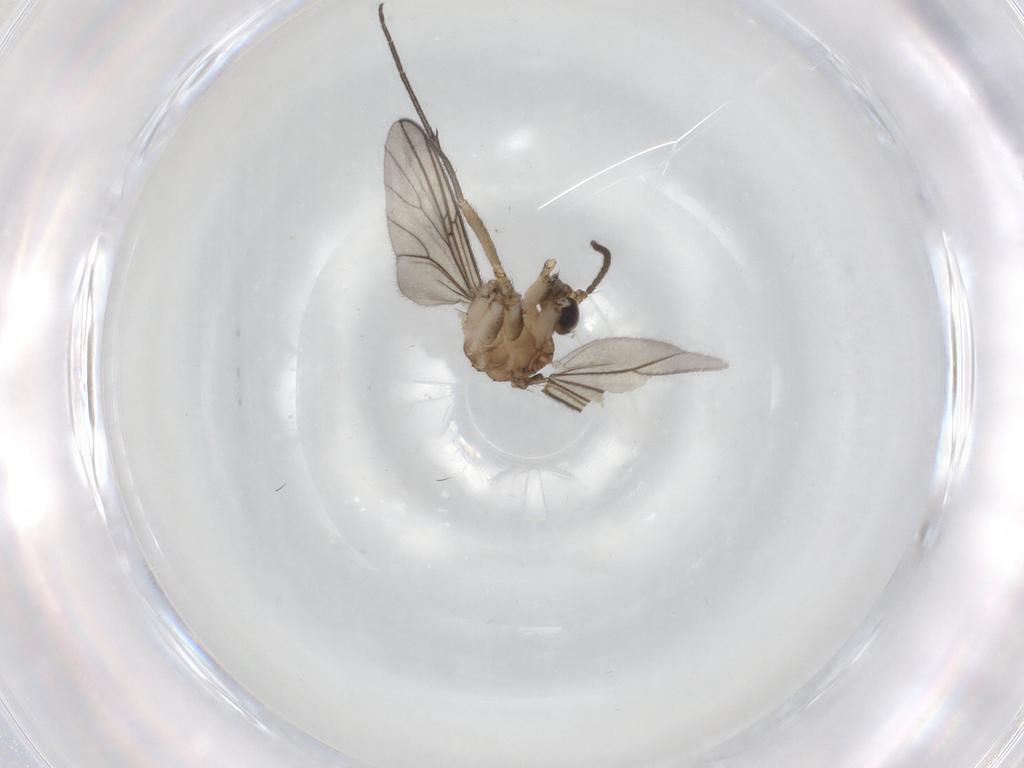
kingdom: Animalia
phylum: Arthropoda
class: Insecta
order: Diptera
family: Mycetophilidae
